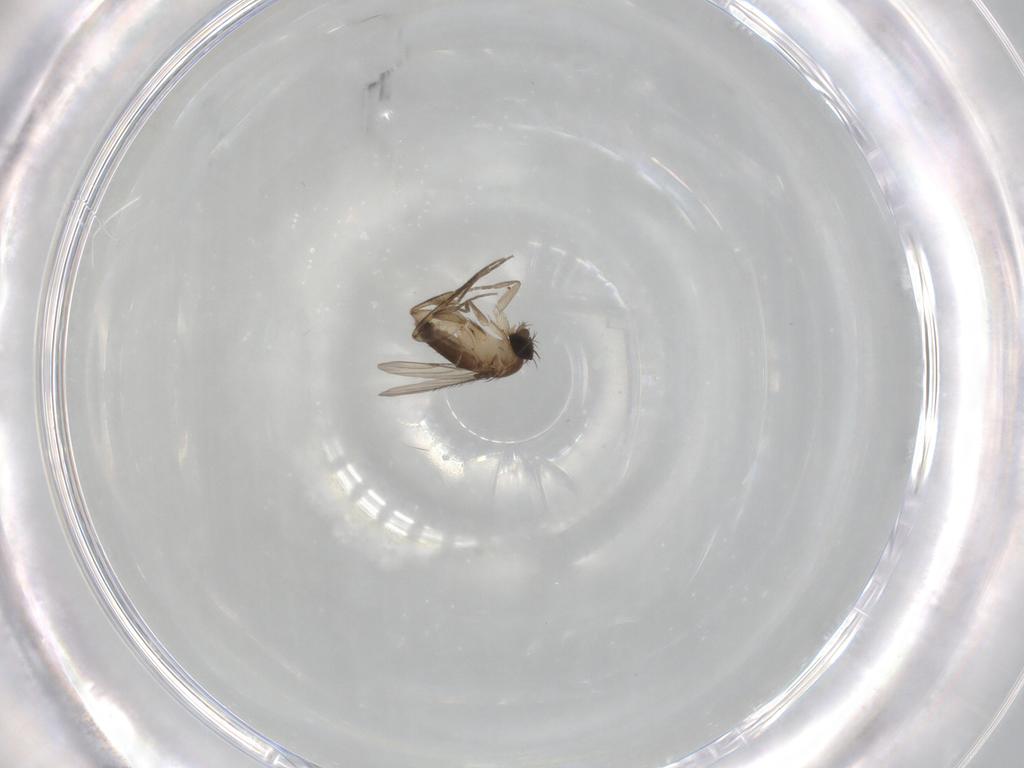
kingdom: Animalia
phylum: Arthropoda
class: Insecta
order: Diptera
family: Phoridae
